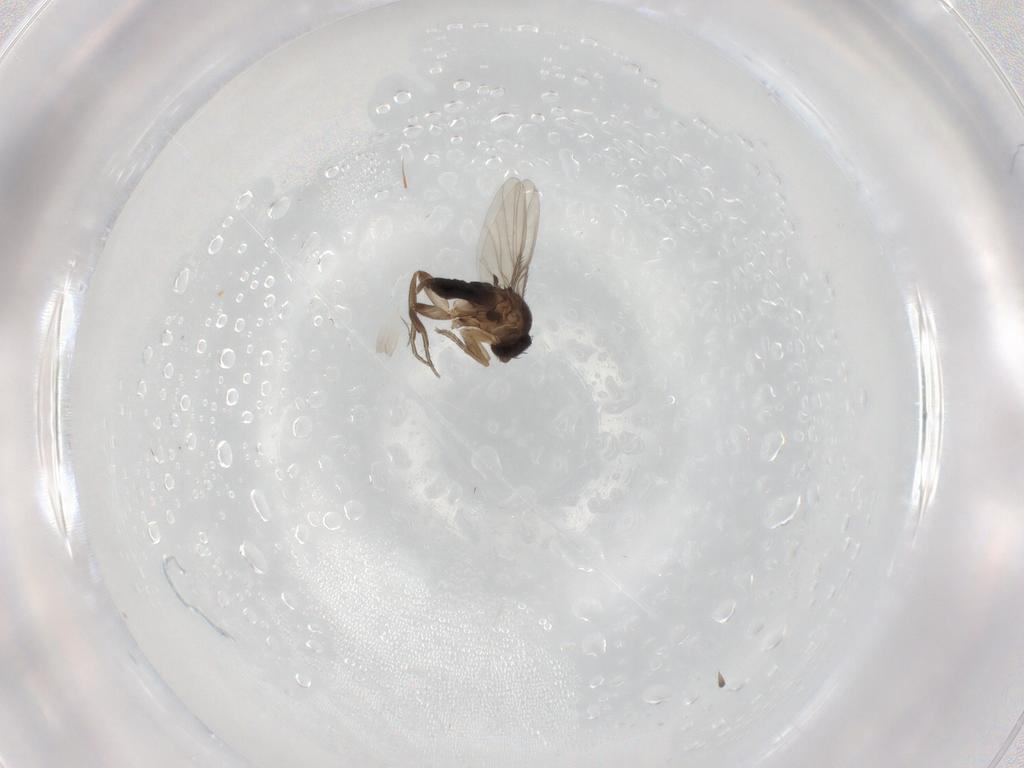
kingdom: Animalia
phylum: Arthropoda
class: Insecta
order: Diptera
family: Phoridae
